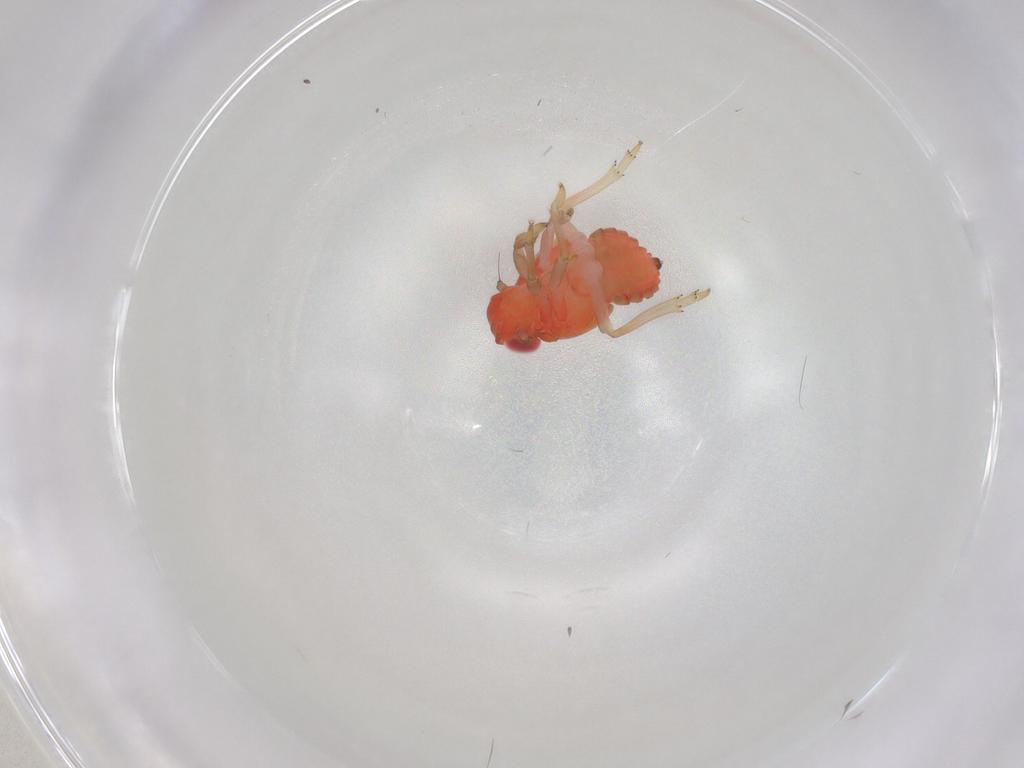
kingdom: Animalia
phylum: Arthropoda
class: Insecta
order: Hemiptera
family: Issidae
